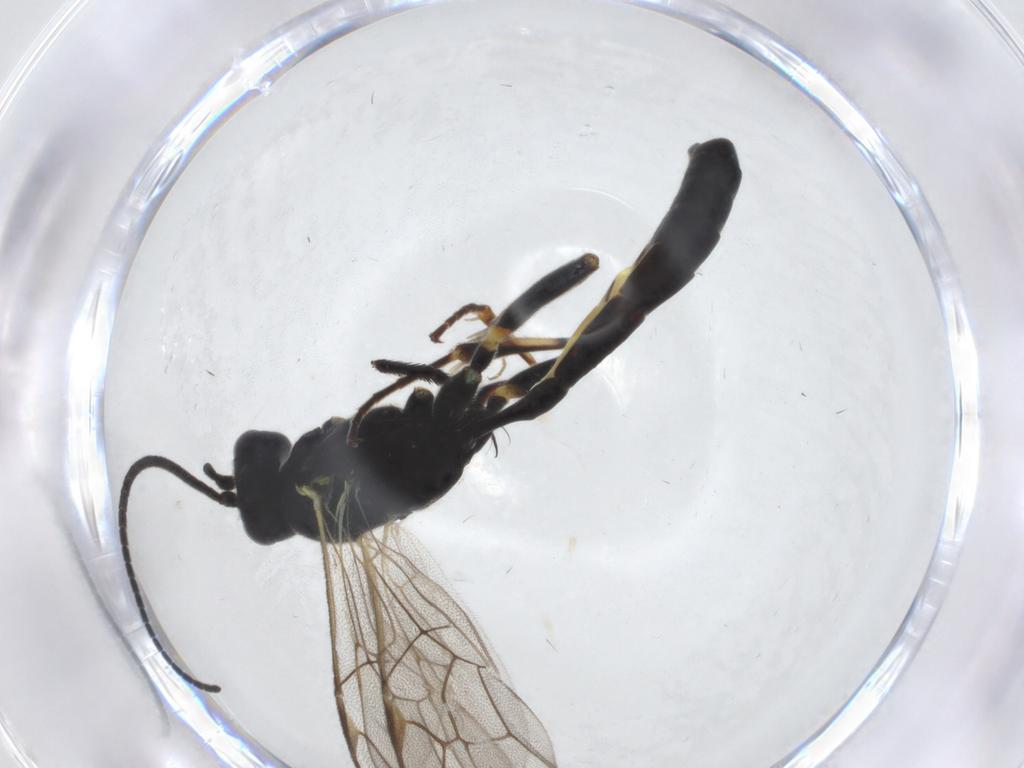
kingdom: Animalia
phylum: Arthropoda
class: Insecta
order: Hymenoptera
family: Ichneumonidae
